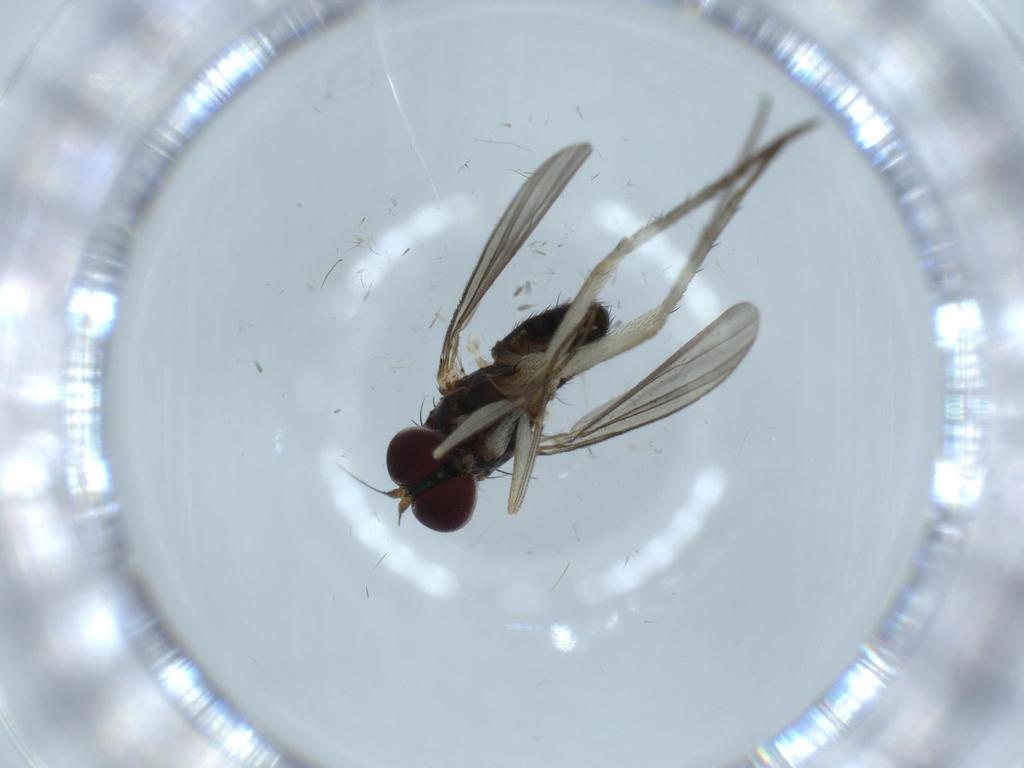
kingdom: Animalia
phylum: Arthropoda
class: Insecta
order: Diptera
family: Dolichopodidae
